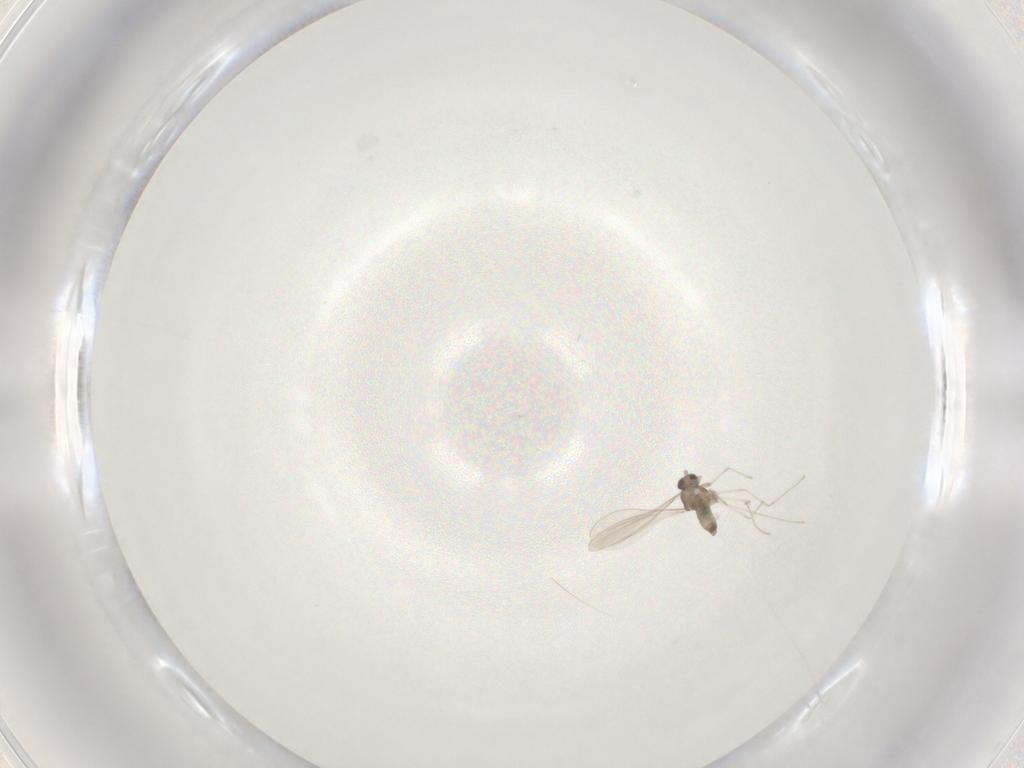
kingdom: Animalia
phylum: Arthropoda
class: Insecta
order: Diptera
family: Cecidomyiidae
